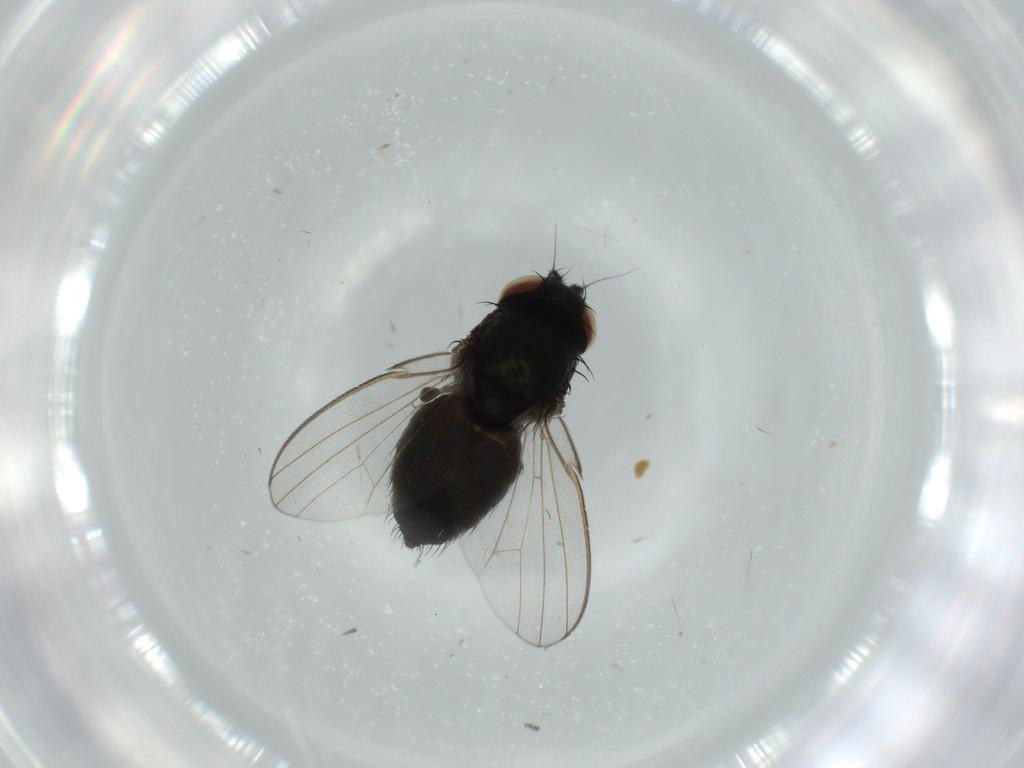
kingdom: Animalia
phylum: Arthropoda
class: Insecta
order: Diptera
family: Milichiidae
